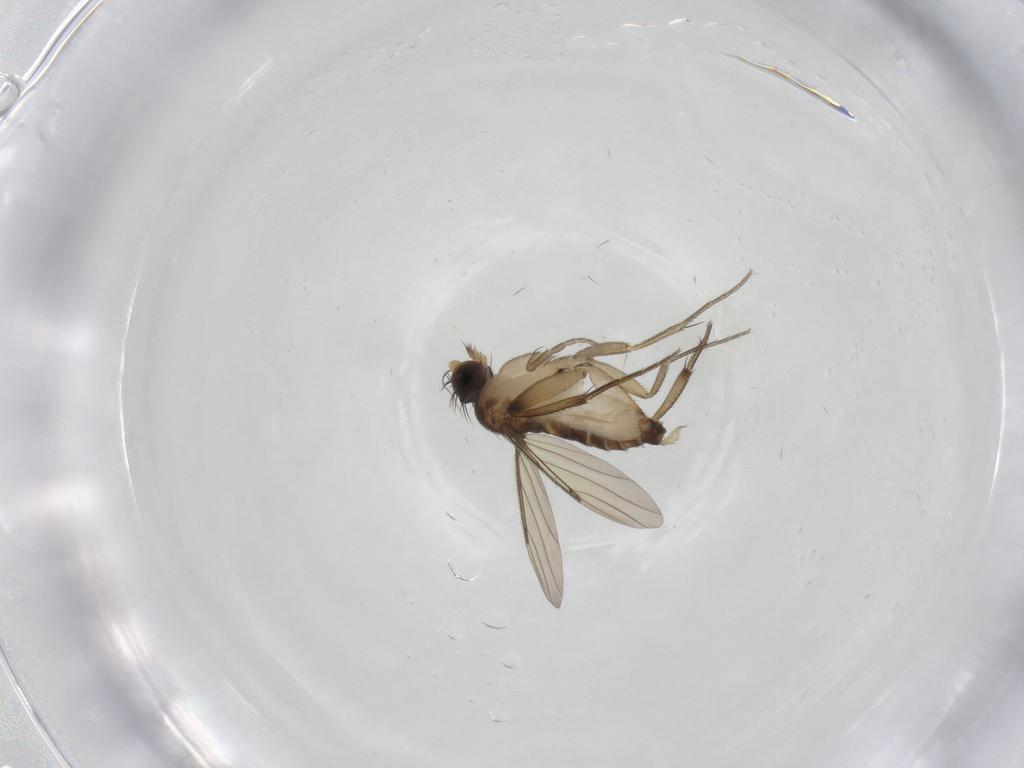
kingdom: Animalia
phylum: Arthropoda
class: Insecta
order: Diptera
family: Phoridae
